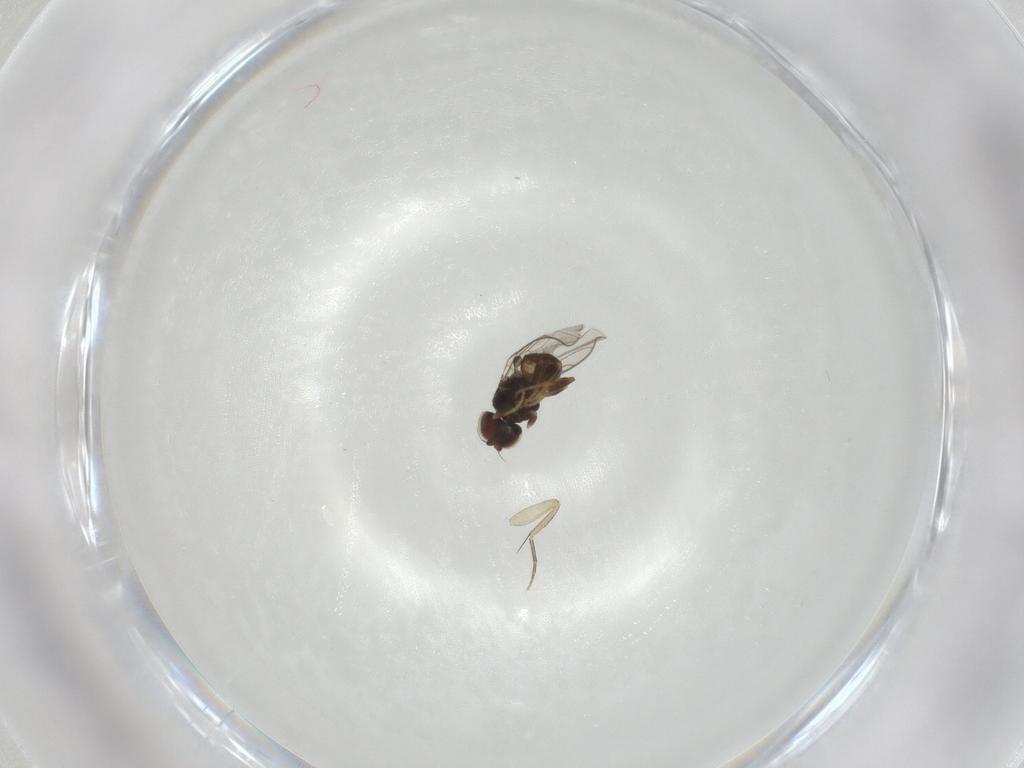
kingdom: Animalia
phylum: Arthropoda
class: Insecta
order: Diptera
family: Chloropidae
